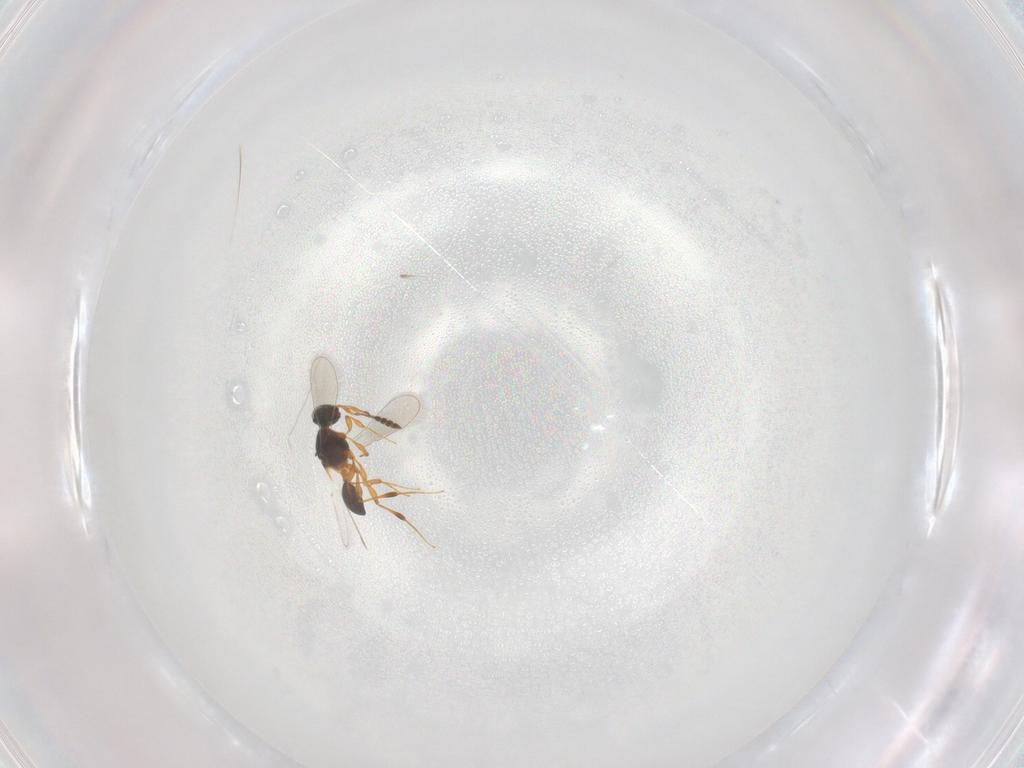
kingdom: Animalia
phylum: Arthropoda
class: Insecta
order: Hymenoptera
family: Platygastridae
